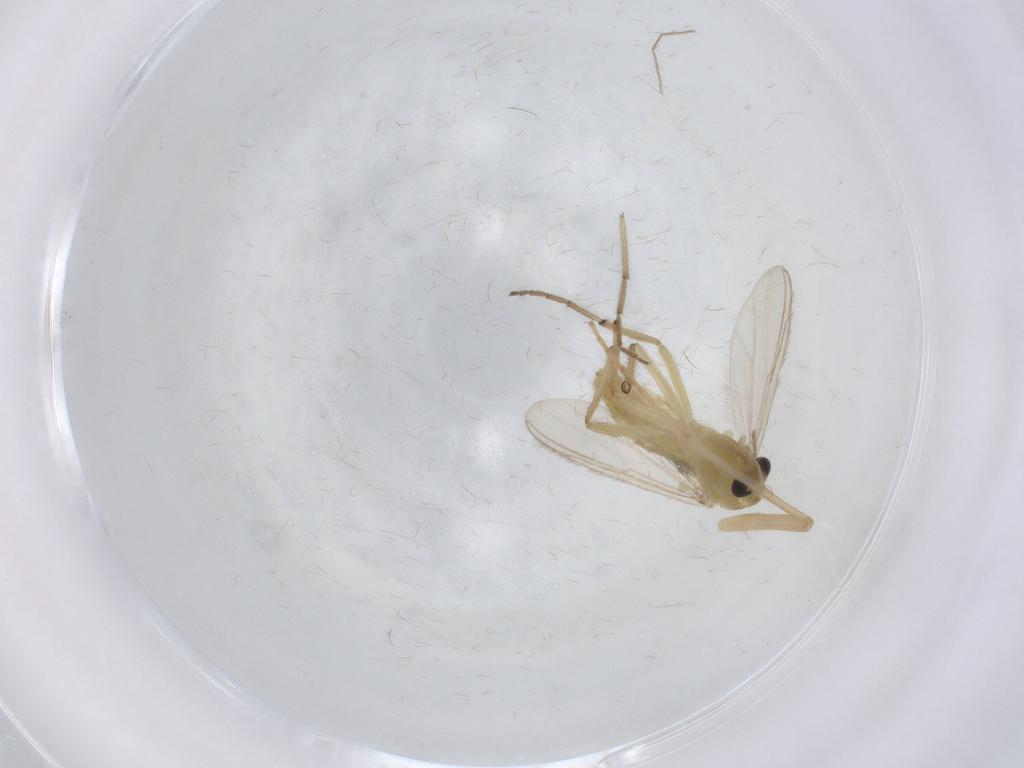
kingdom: Animalia
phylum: Arthropoda
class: Insecta
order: Diptera
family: Chironomidae
